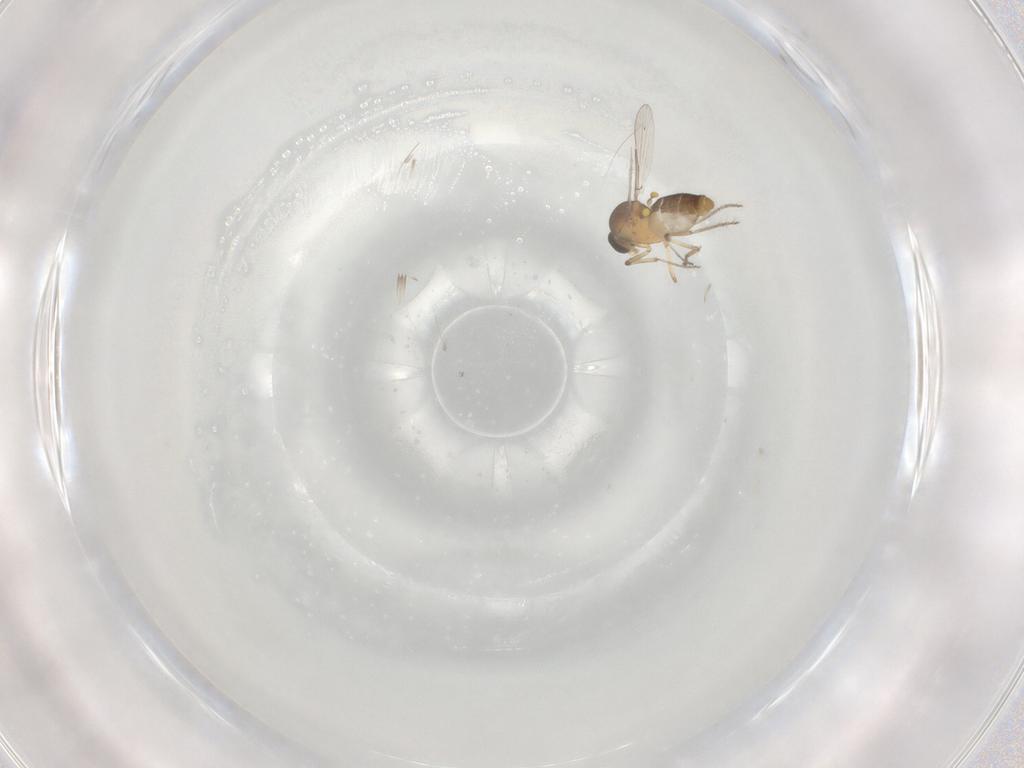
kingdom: Animalia
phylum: Arthropoda
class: Insecta
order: Diptera
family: Ceratopogonidae
